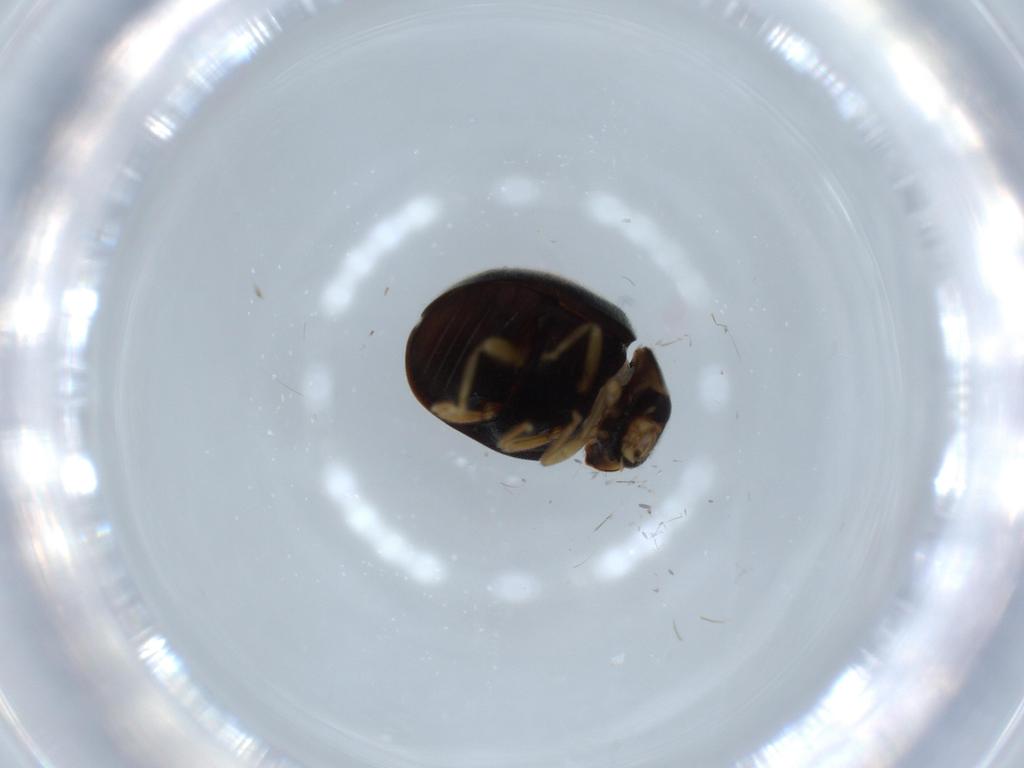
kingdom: Animalia
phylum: Arthropoda
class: Insecta
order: Coleoptera
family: Coccinellidae
